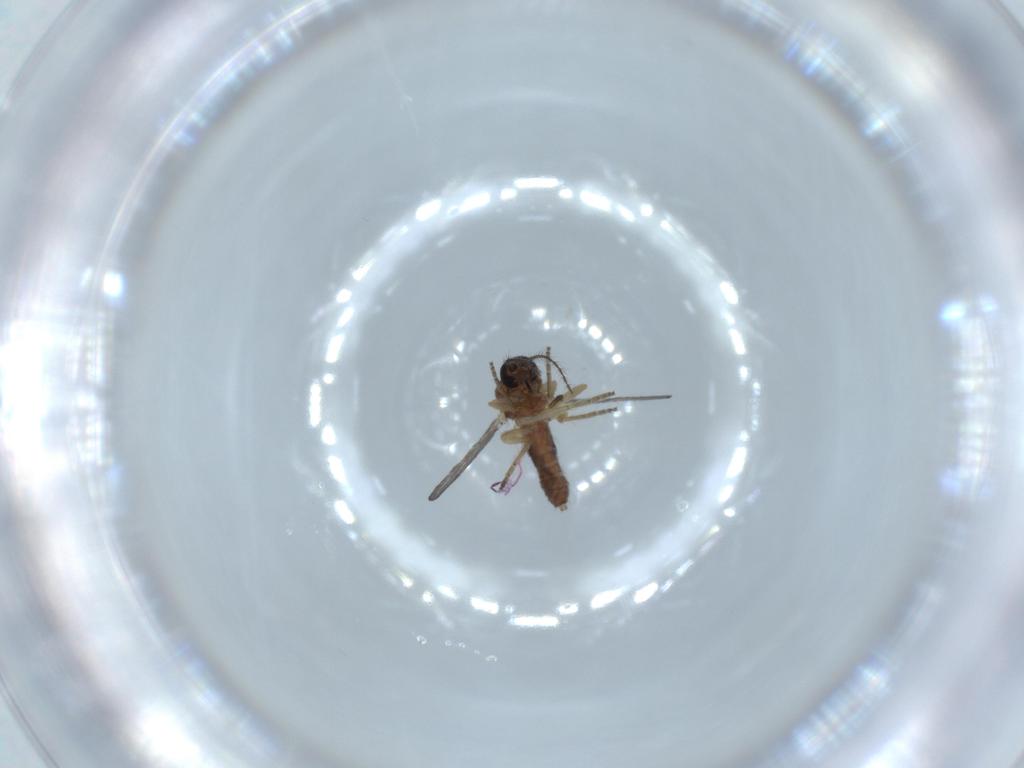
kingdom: Animalia
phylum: Arthropoda
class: Insecta
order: Diptera
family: Ceratopogonidae
